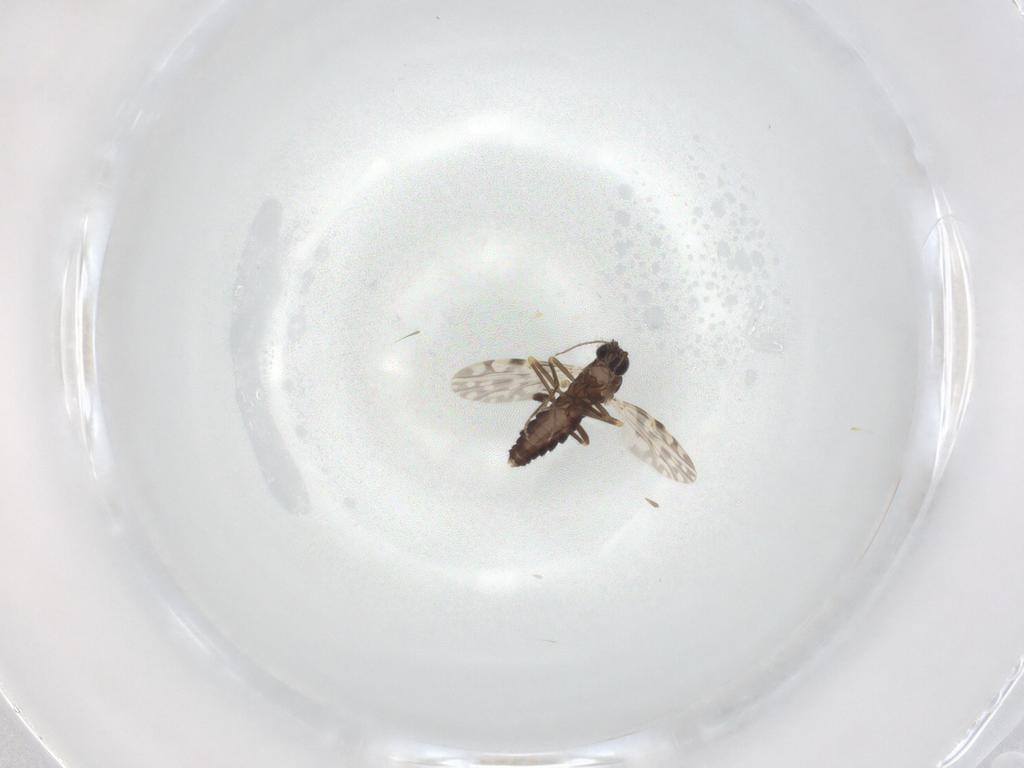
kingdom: Animalia
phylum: Arthropoda
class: Insecta
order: Diptera
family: Ceratopogonidae
